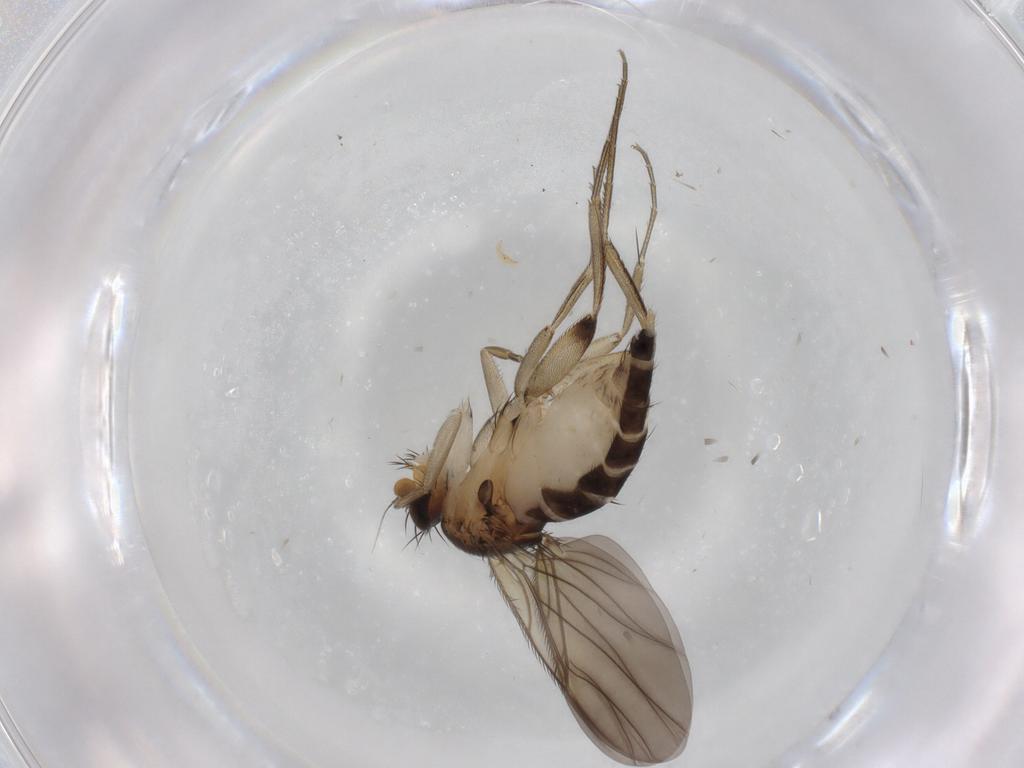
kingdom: Animalia
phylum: Arthropoda
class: Insecta
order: Diptera
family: Phoridae
